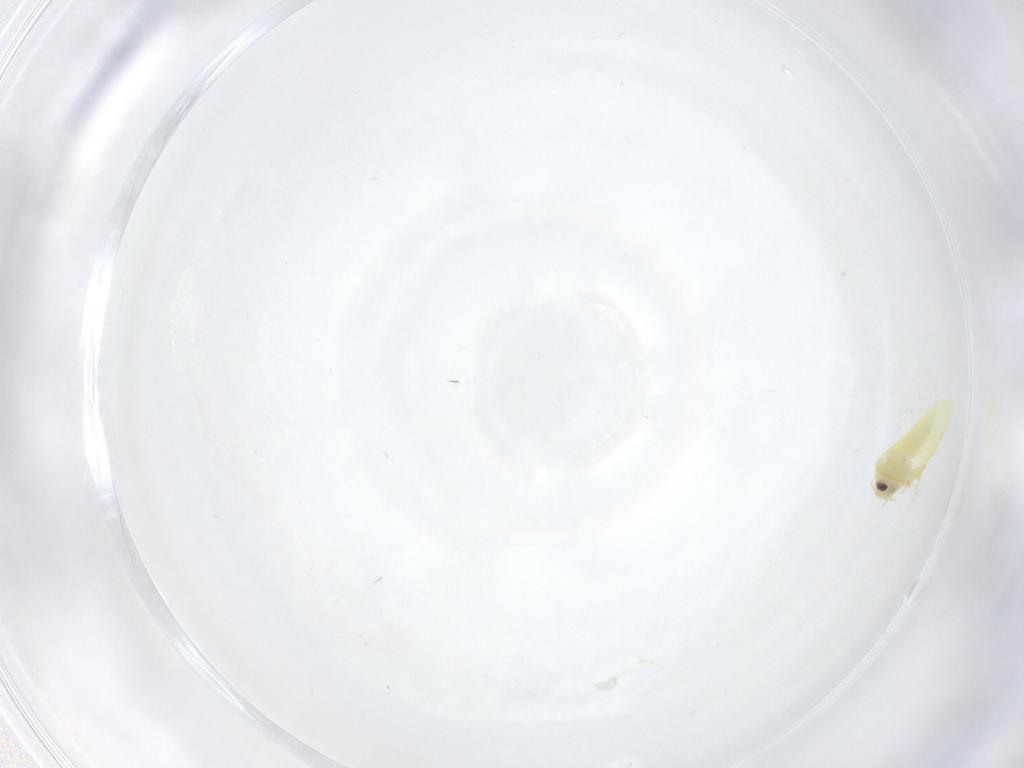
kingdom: Animalia
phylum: Arthropoda
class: Insecta
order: Hemiptera
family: Aleyrodidae
